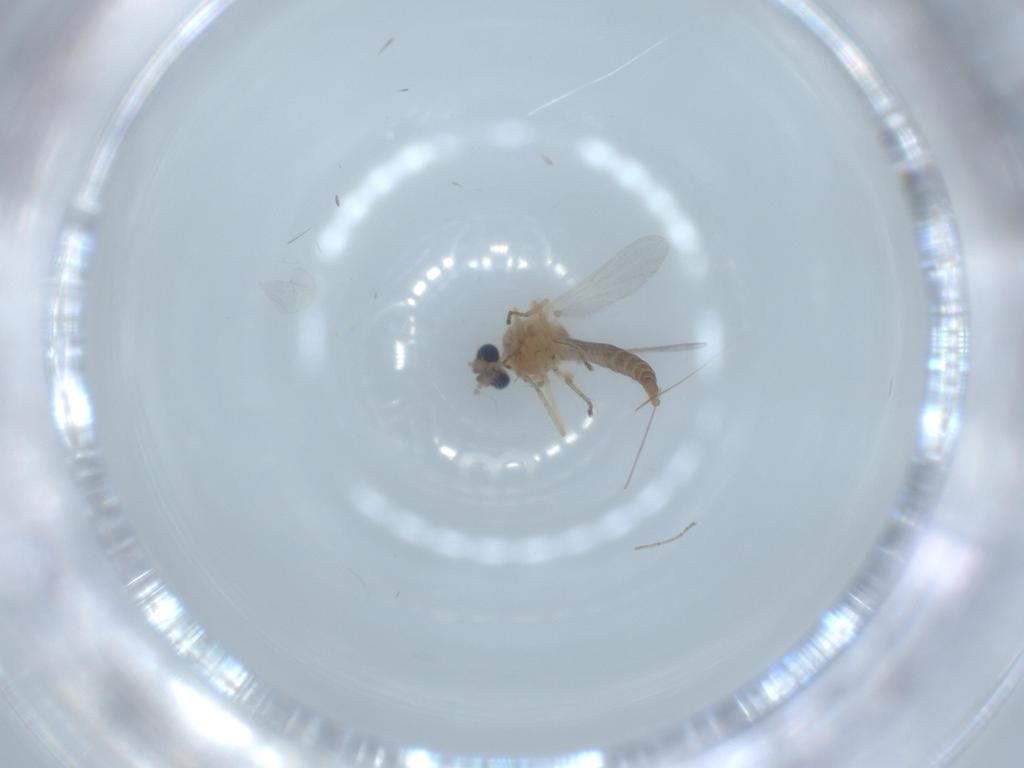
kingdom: Animalia
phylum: Arthropoda
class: Insecta
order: Diptera
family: Ceratopogonidae
